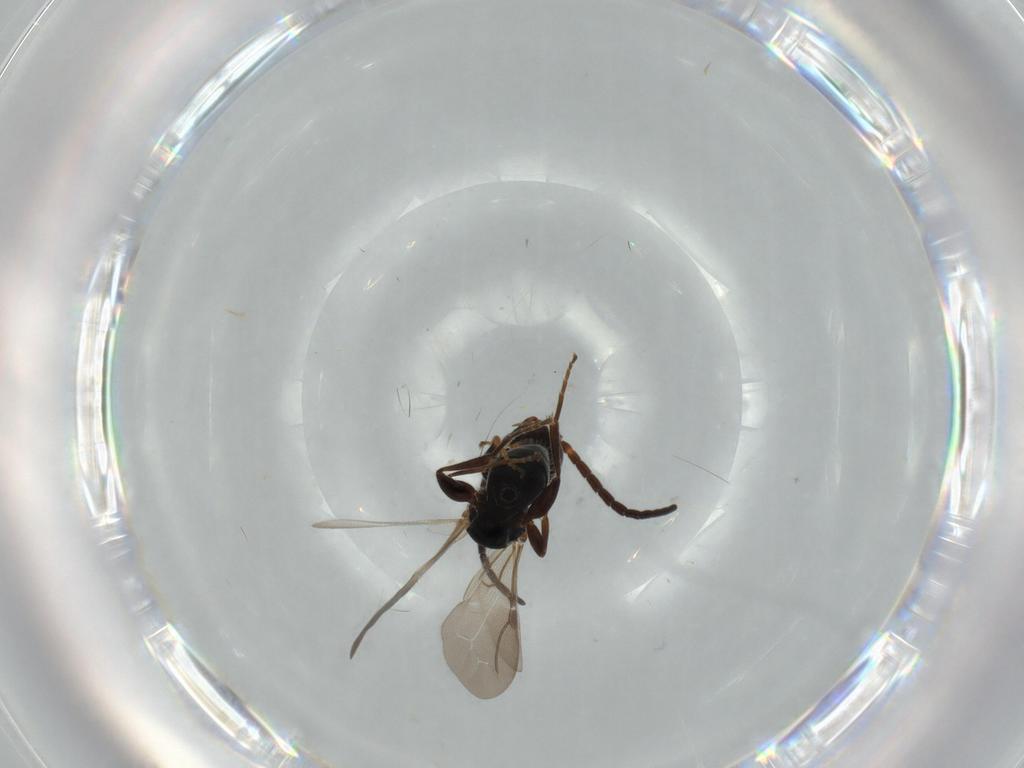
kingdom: Animalia
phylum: Arthropoda
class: Insecta
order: Hymenoptera
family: Bethylidae
